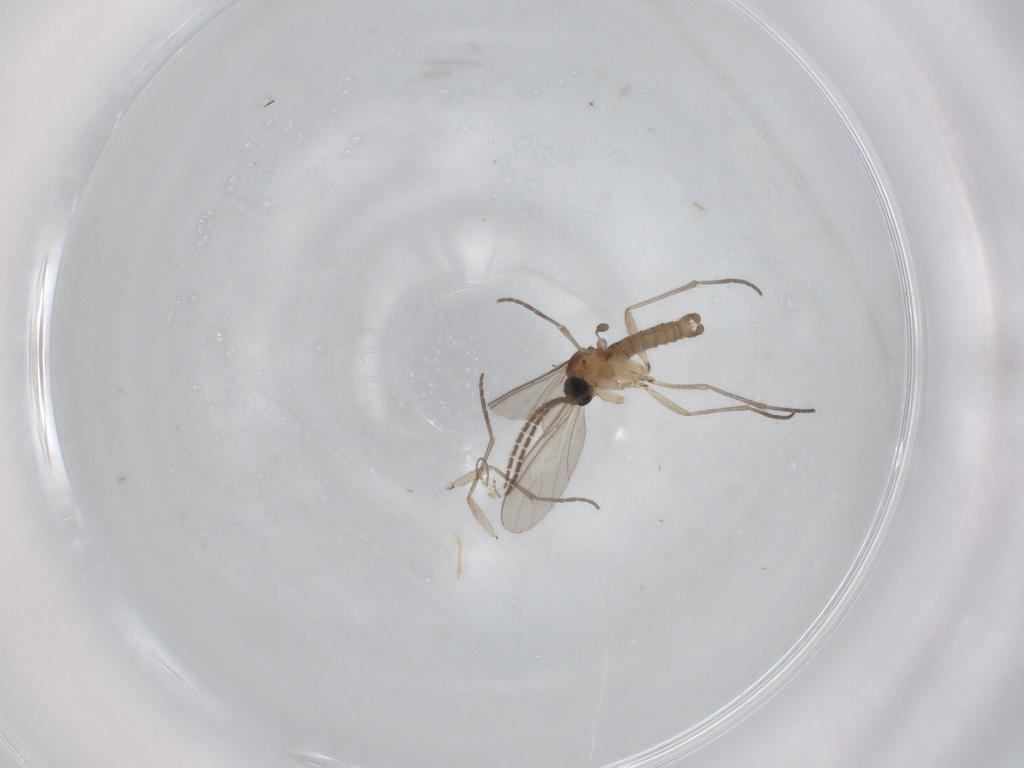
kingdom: Animalia
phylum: Arthropoda
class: Insecta
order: Diptera
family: Sciaridae
